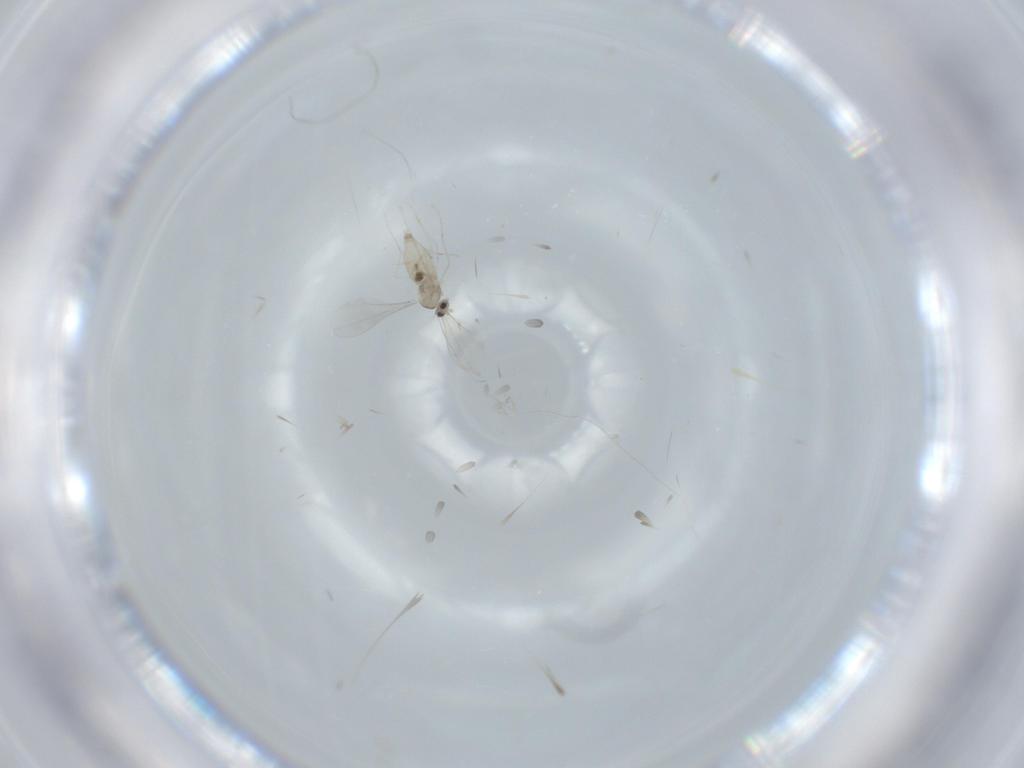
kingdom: Animalia
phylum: Arthropoda
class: Insecta
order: Diptera
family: Cecidomyiidae
